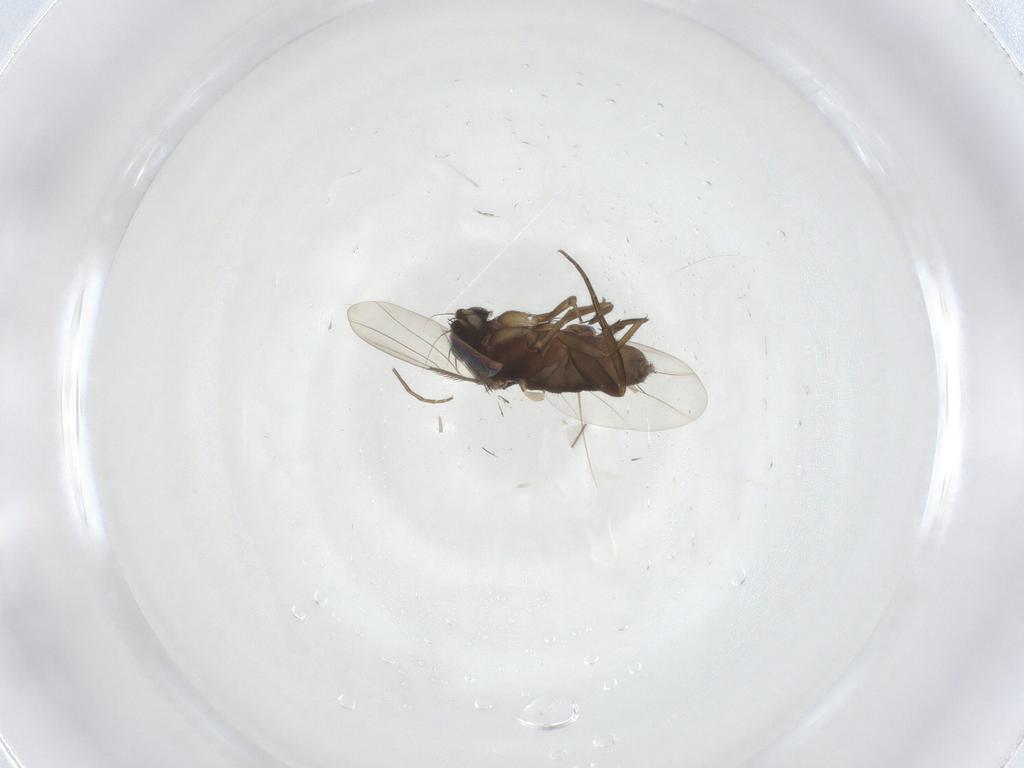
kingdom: Animalia
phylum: Arthropoda
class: Insecta
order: Diptera
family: Phoridae
